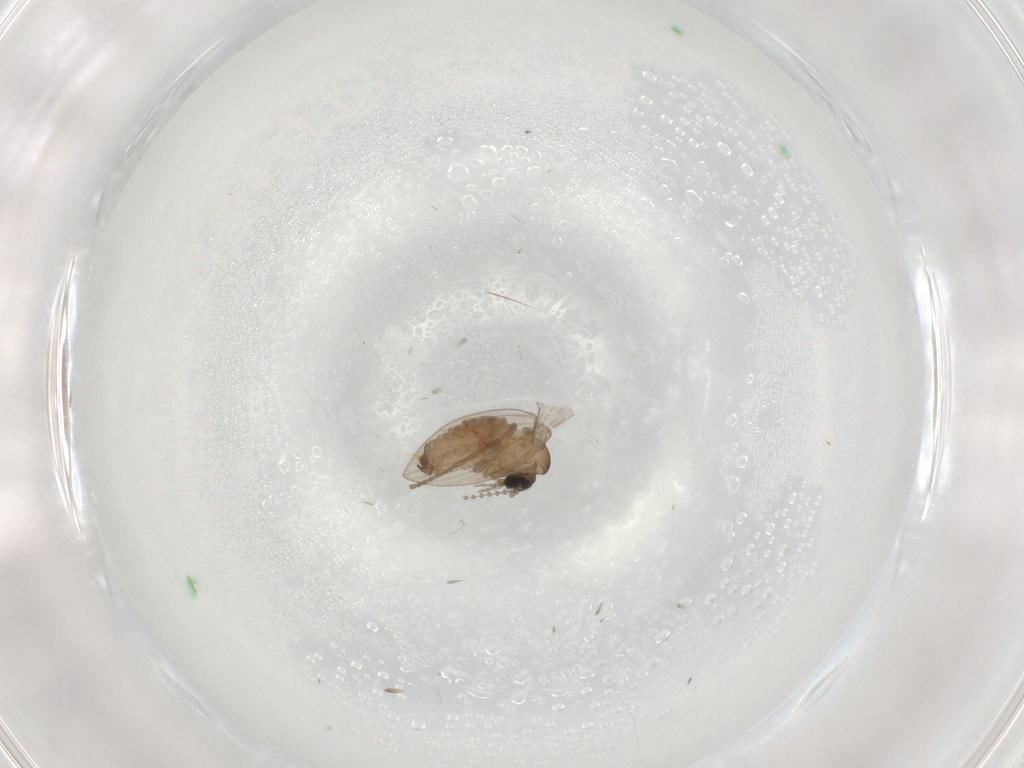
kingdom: Animalia
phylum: Arthropoda
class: Insecta
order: Diptera
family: Psychodidae
